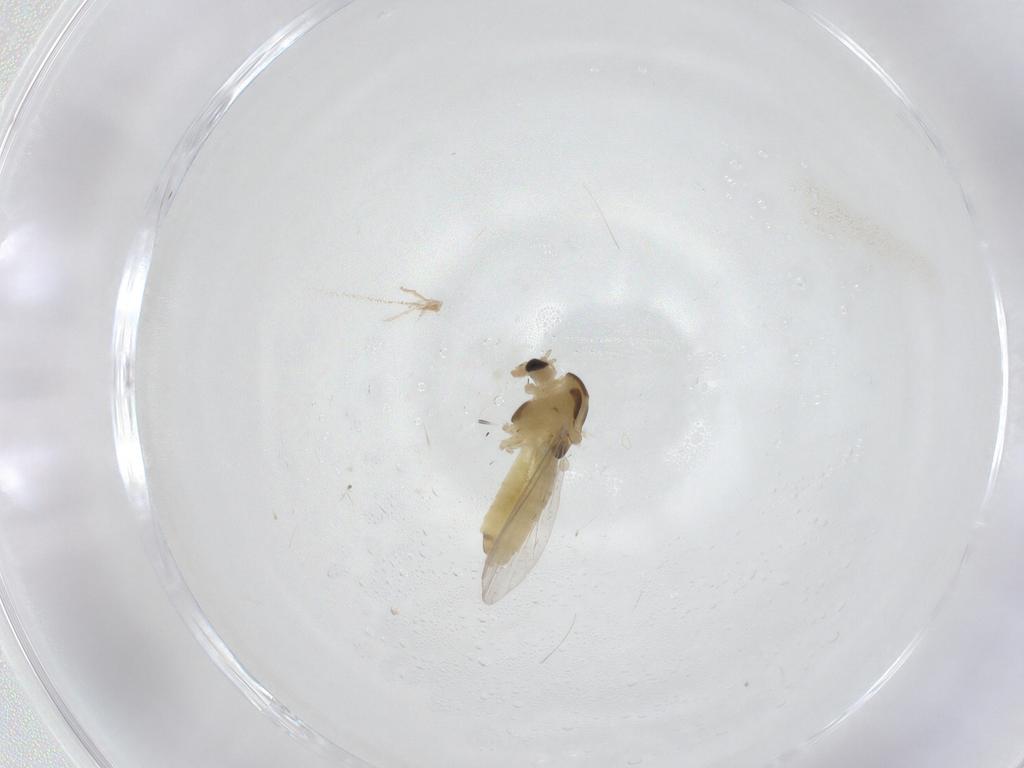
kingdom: Animalia
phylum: Arthropoda
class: Insecta
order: Diptera
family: Chironomidae
